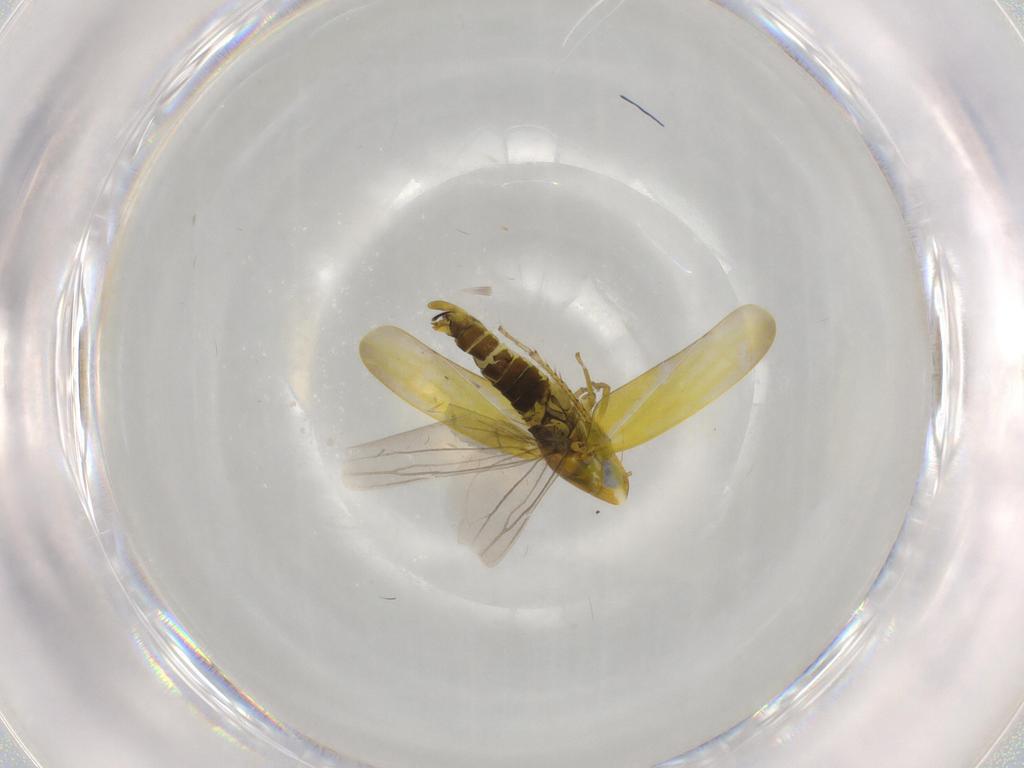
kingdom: Animalia
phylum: Arthropoda
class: Insecta
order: Hemiptera
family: Cicadellidae
